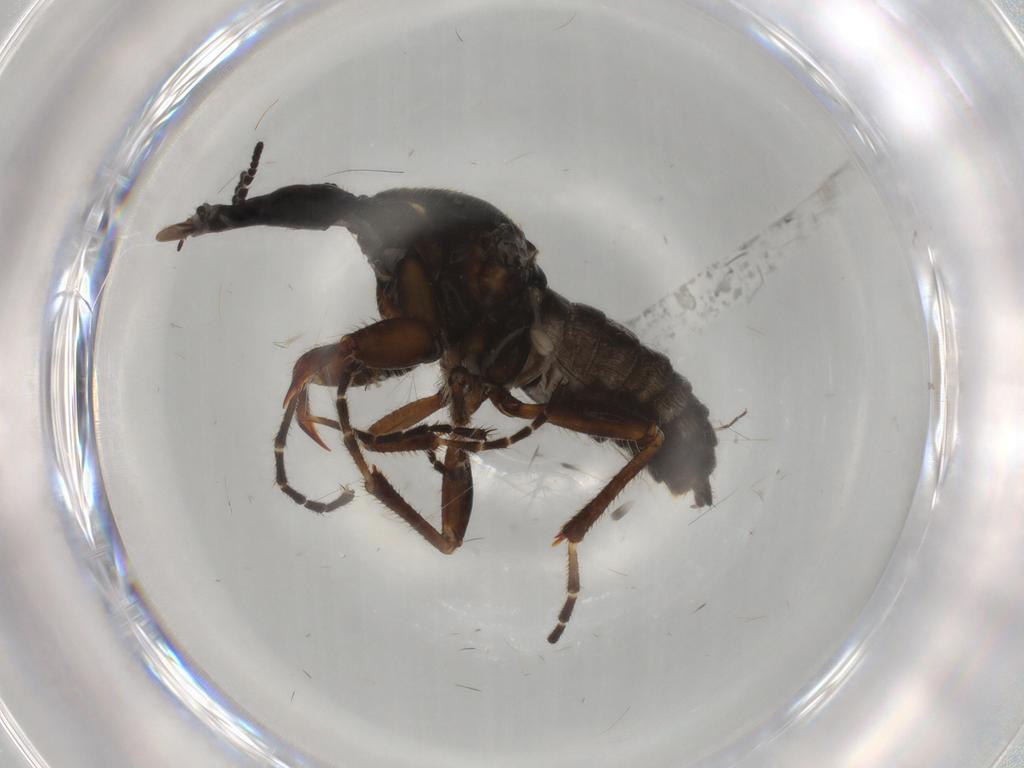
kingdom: Animalia
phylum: Arthropoda
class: Insecta
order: Diptera
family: Bibionidae
